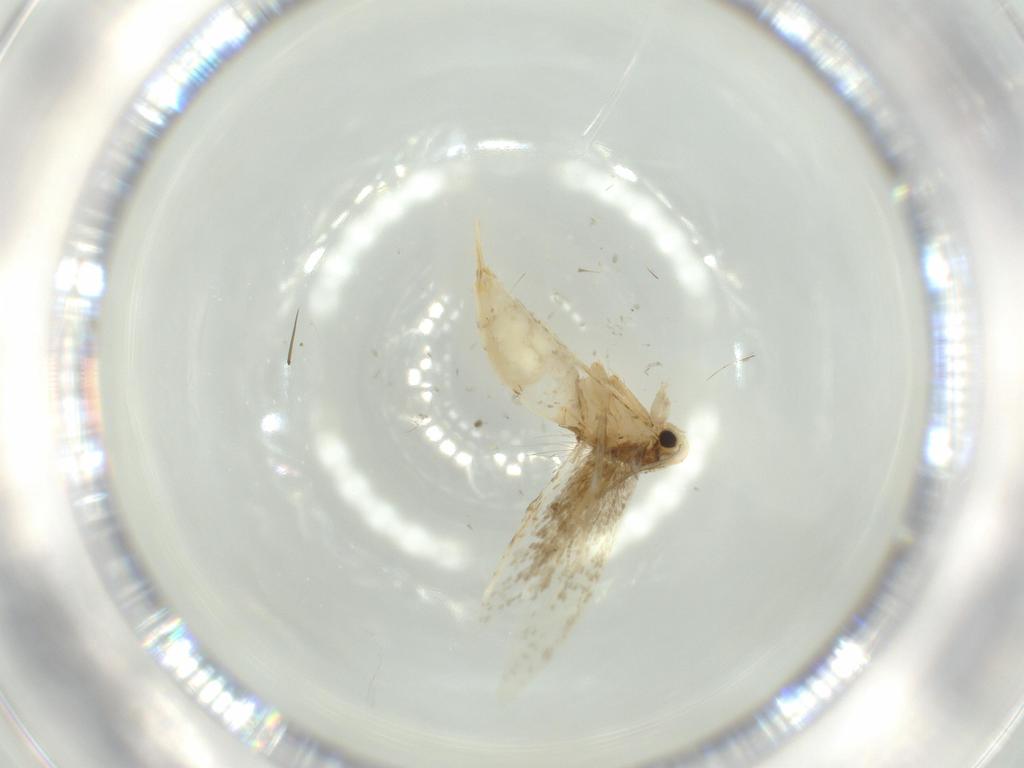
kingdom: Animalia
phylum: Arthropoda
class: Insecta
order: Lepidoptera
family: Tineidae
